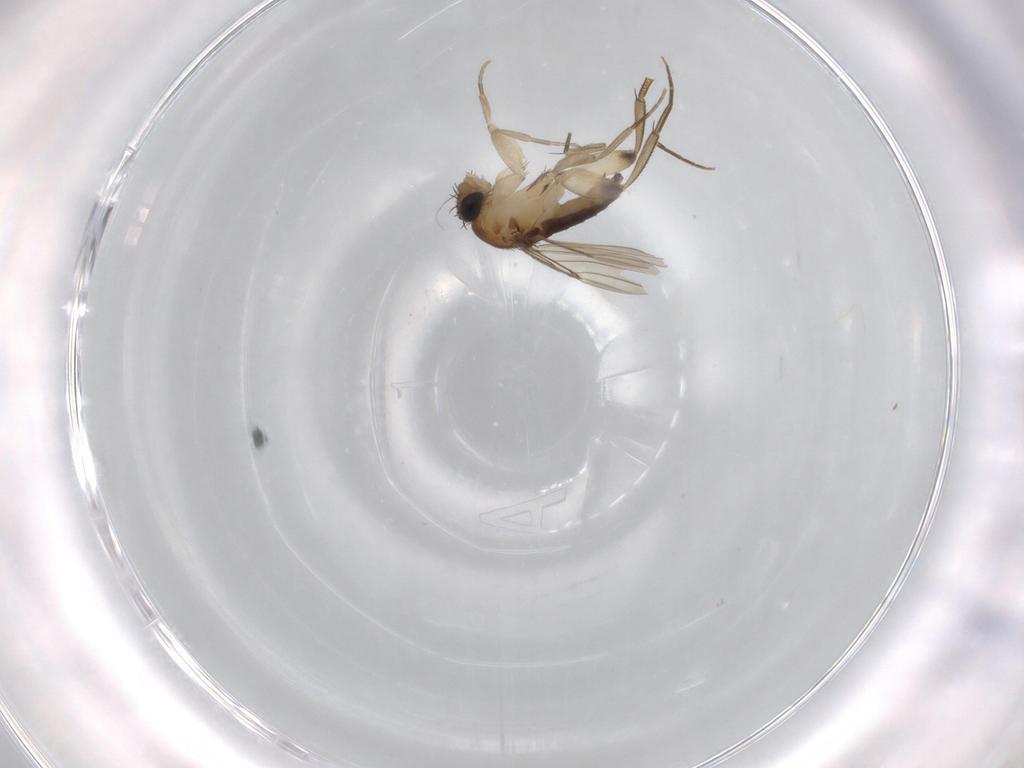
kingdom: Animalia
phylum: Arthropoda
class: Insecta
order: Diptera
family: Phoridae
